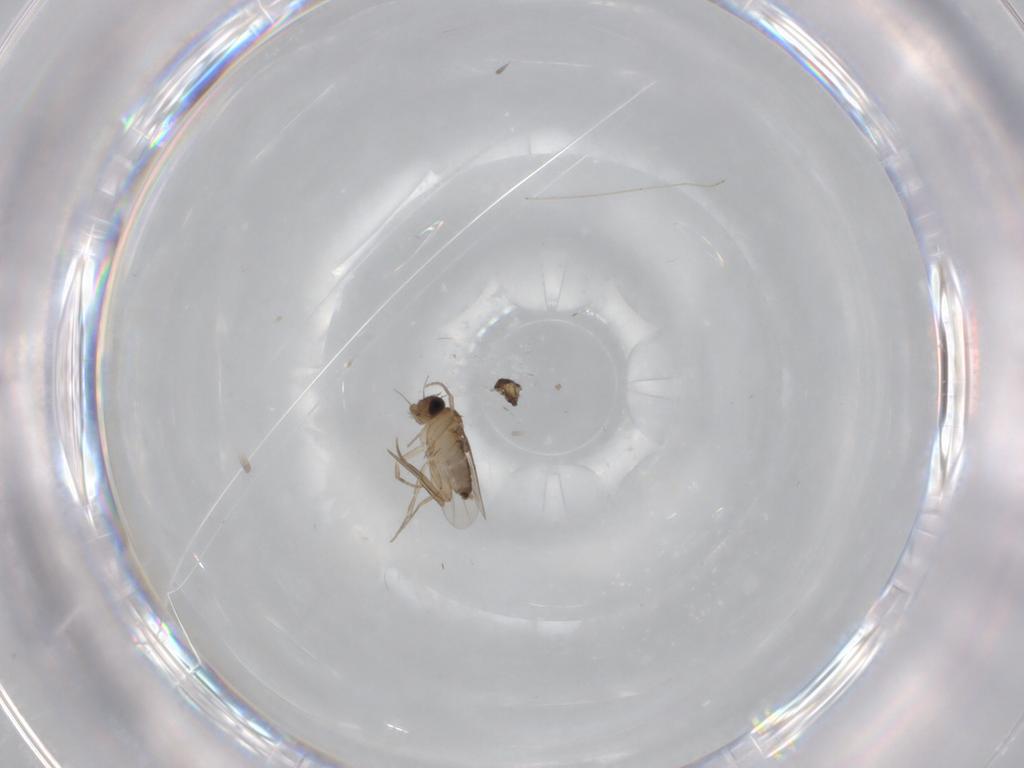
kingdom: Animalia
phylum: Arthropoda
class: Insecta
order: Diptera
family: Phoridae
